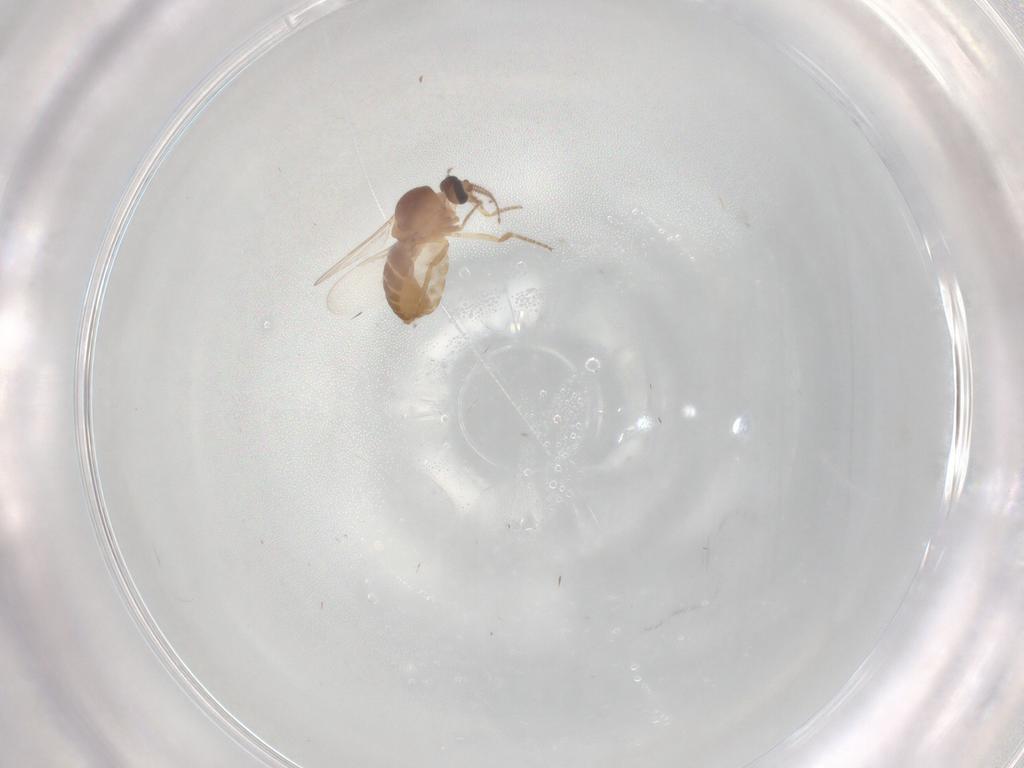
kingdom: Animalia
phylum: Arthropoda
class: Insecta
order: Diptera
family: Ceratopogonidae
